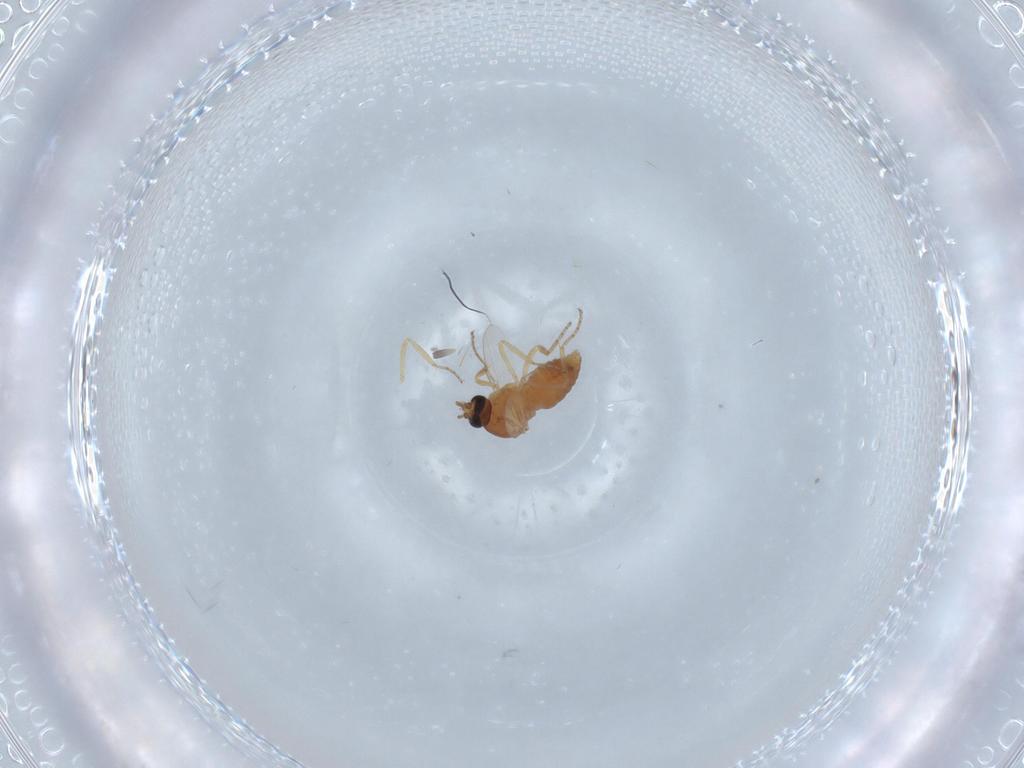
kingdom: Animalia
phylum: Arthropoda
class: Insecta
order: Diptera
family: Ceratopogonidae
